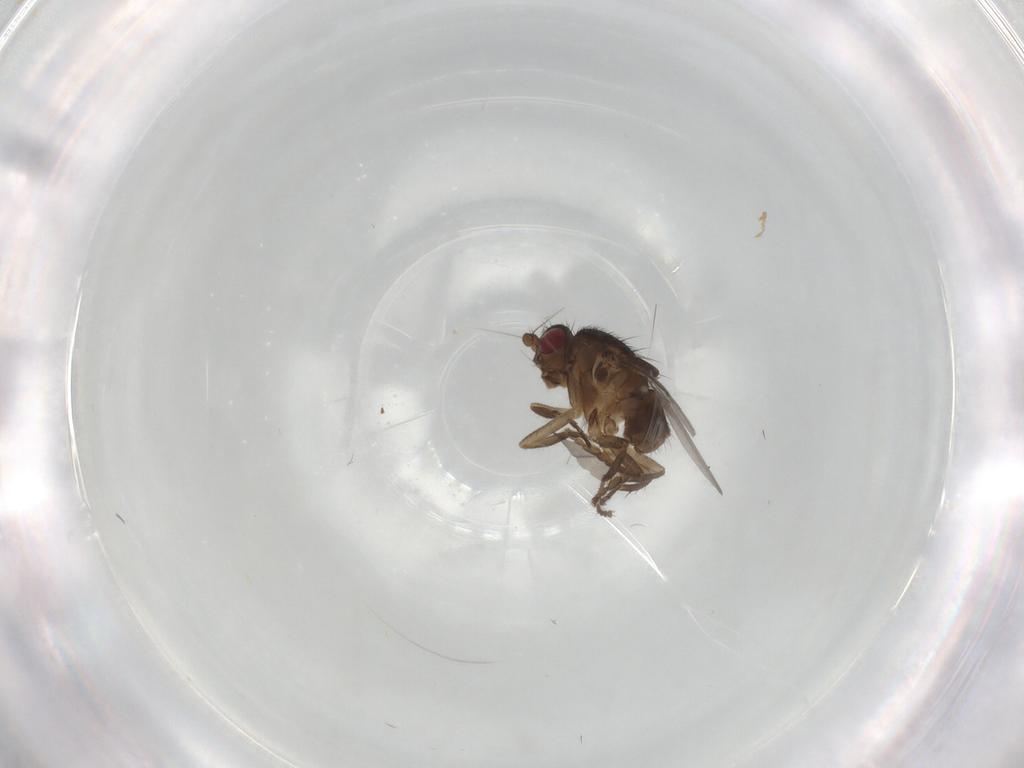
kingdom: Animalia
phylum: Arthropoda
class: Insecta
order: Diptera
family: Sphaeroceridae
